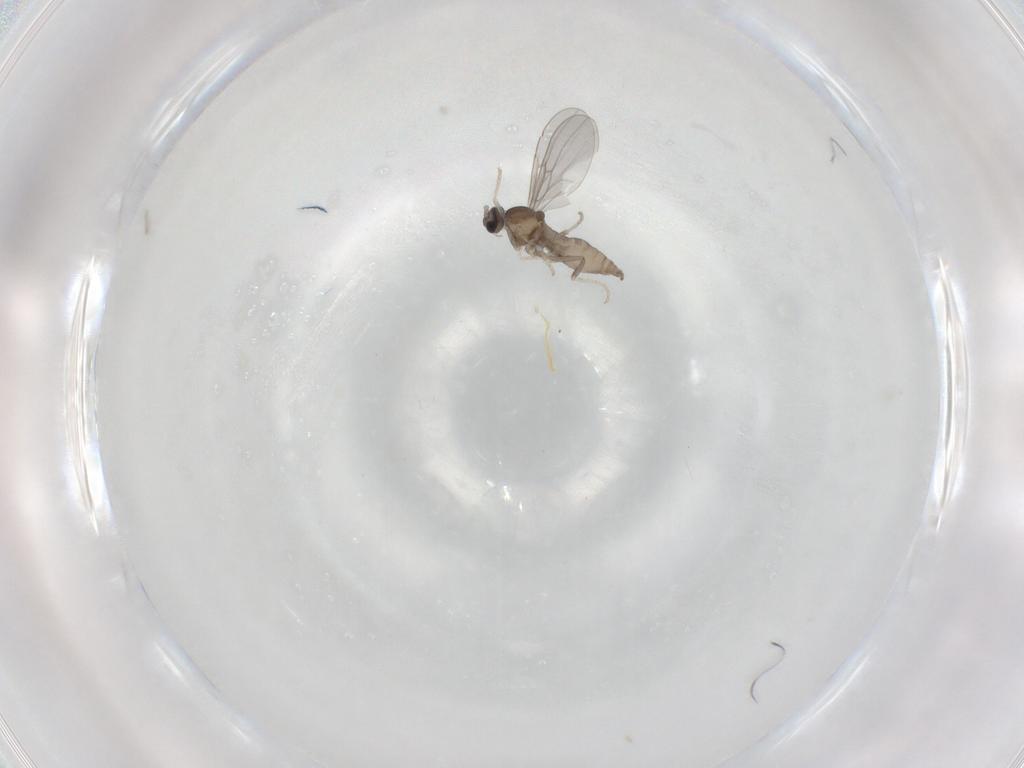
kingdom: Animalia
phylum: Arthropoda
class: Insecta
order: Diptera
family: Cecidomyiidae
